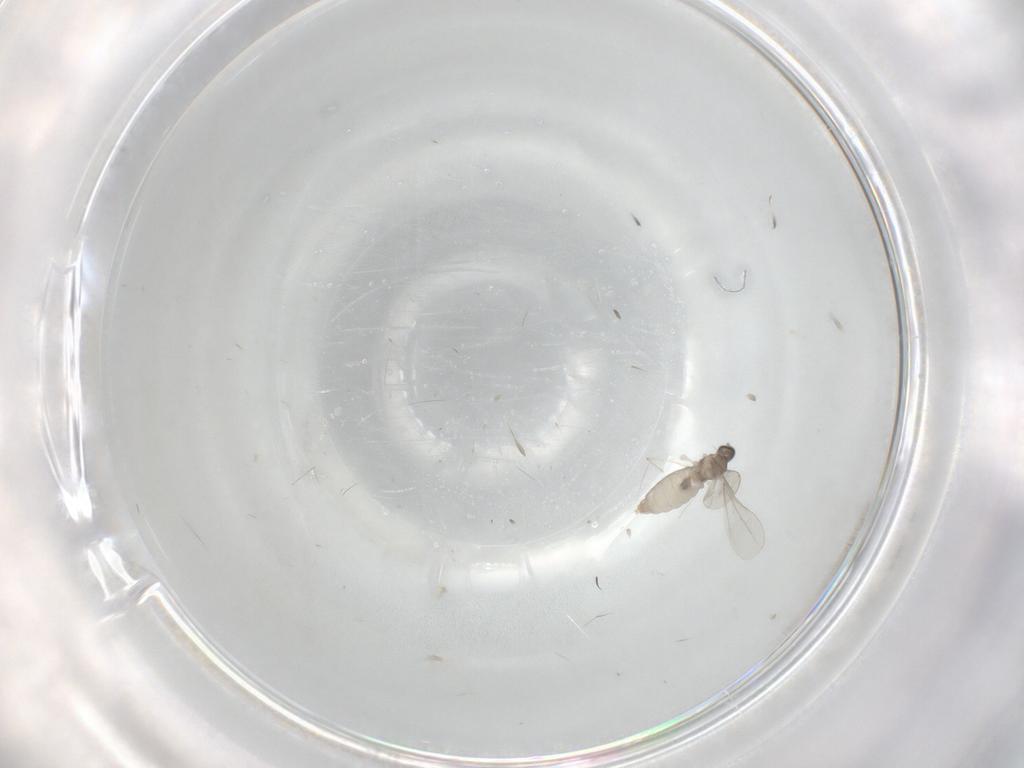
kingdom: Animalia
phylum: Arthropoda
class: Insecta
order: Diptera
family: Cecidomyiidae
